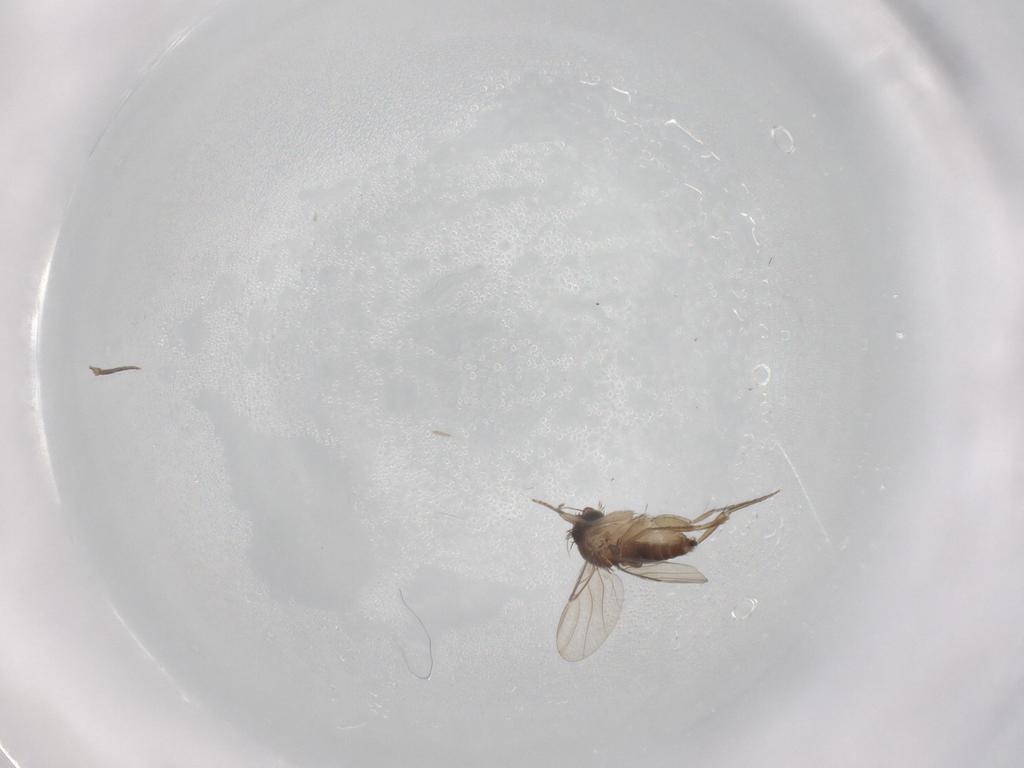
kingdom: Animalia
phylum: Arthropoda
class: Insecta
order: Diptera
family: Phoridae
